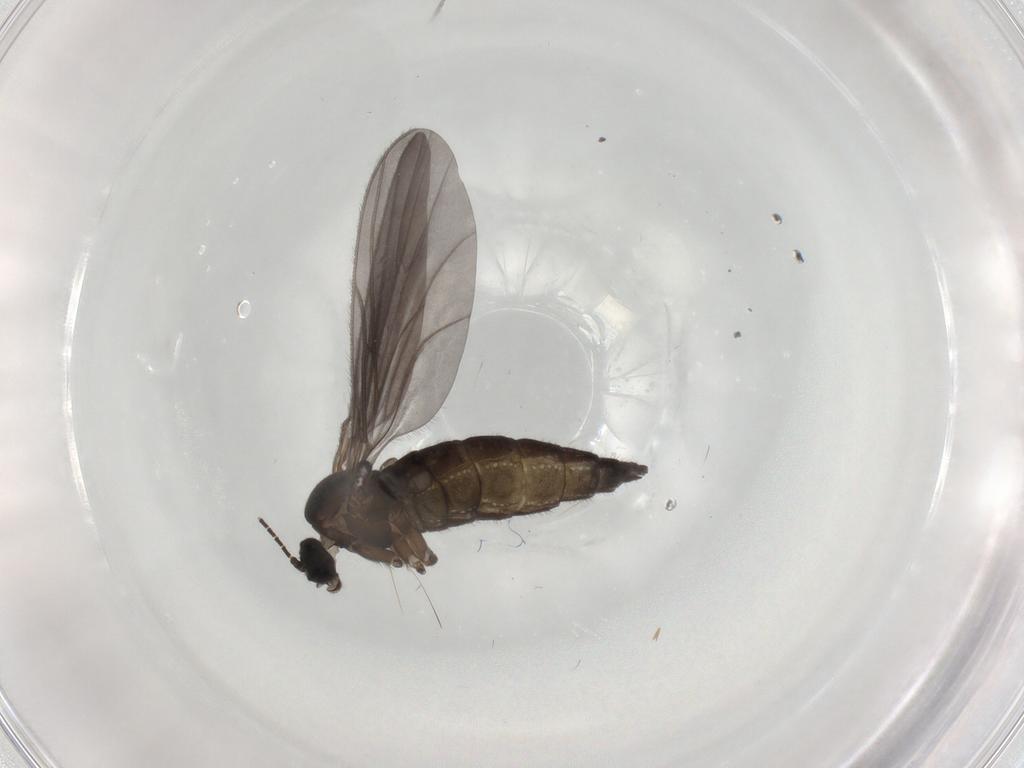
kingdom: Animalia
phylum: Arthropoda
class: Insecta
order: Diptera
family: Sciaridae
